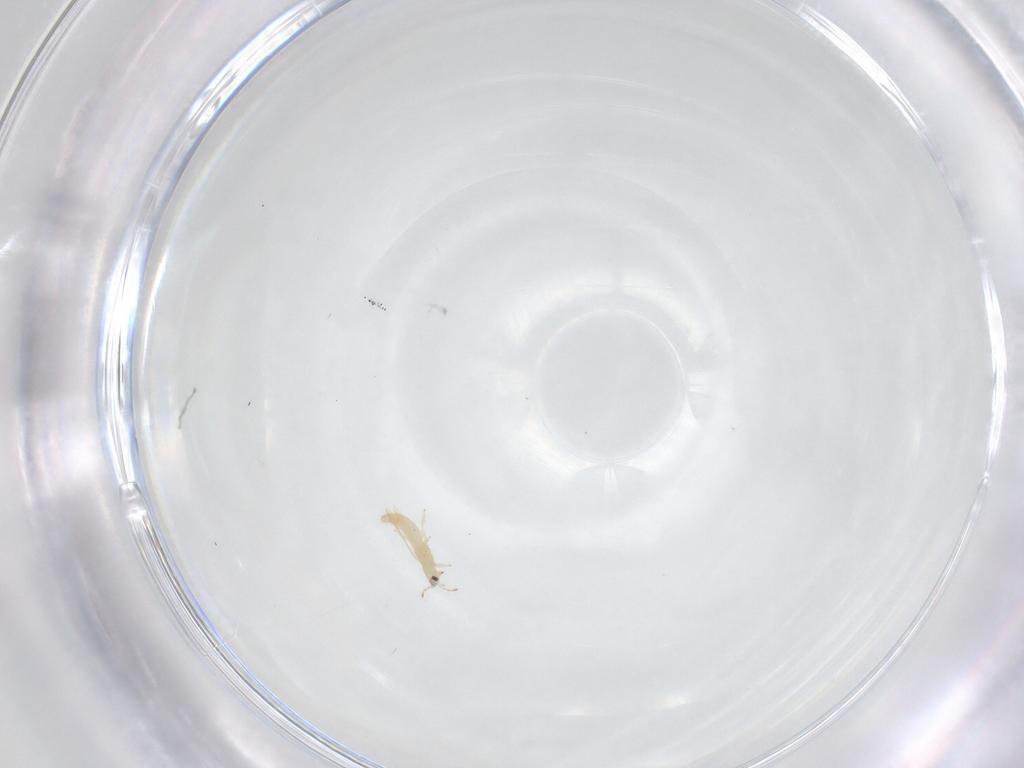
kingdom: Animalia
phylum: Arthropoda
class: Insecta
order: Thysanoptera
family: Thripidae
